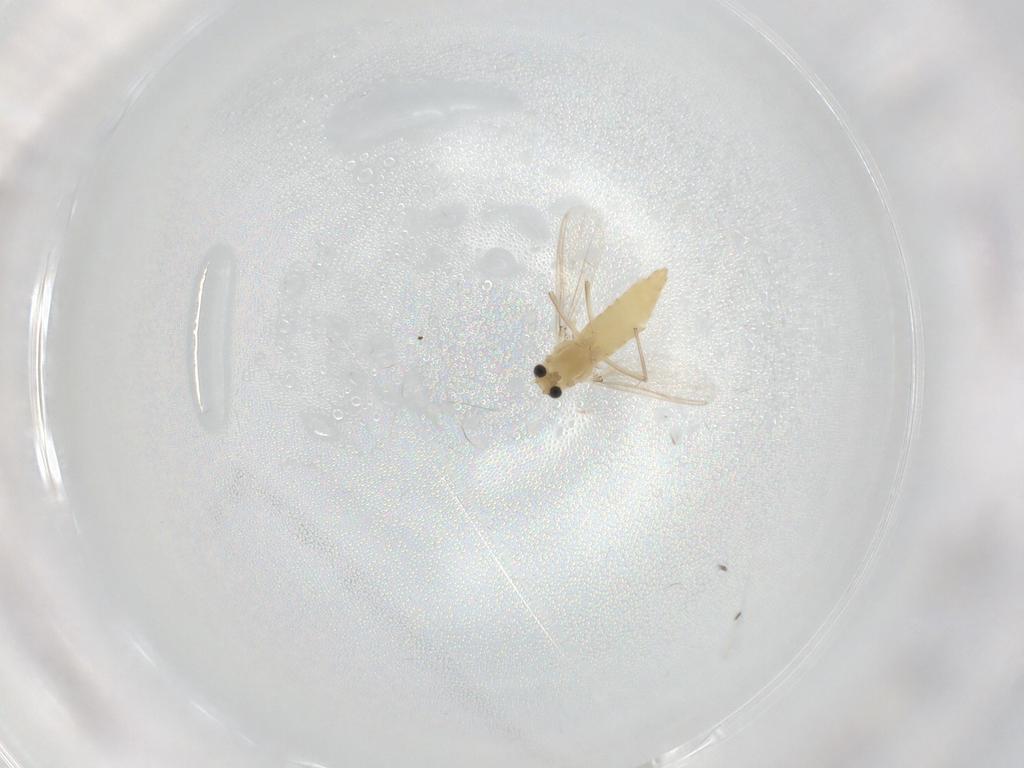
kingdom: Animalia
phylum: Arthropoda
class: Insecta
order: Diptera
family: Chironomidae
